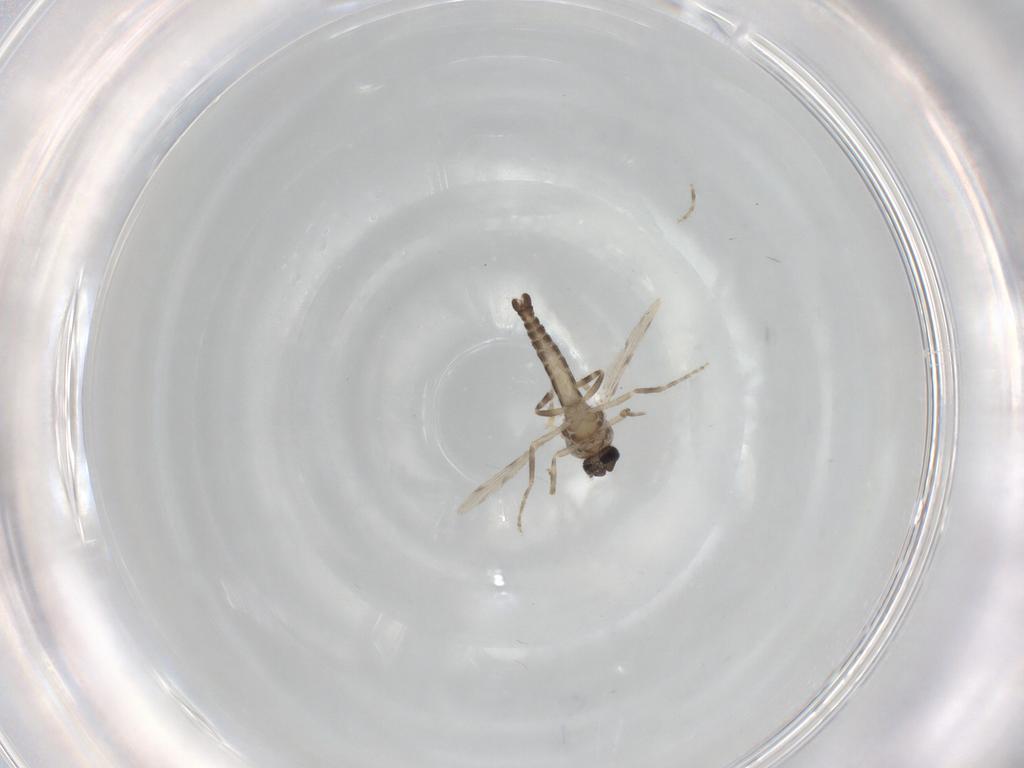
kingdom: Animalia
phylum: Arthropoda
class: Insecta
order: Diptera
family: Ceratopogonidae
